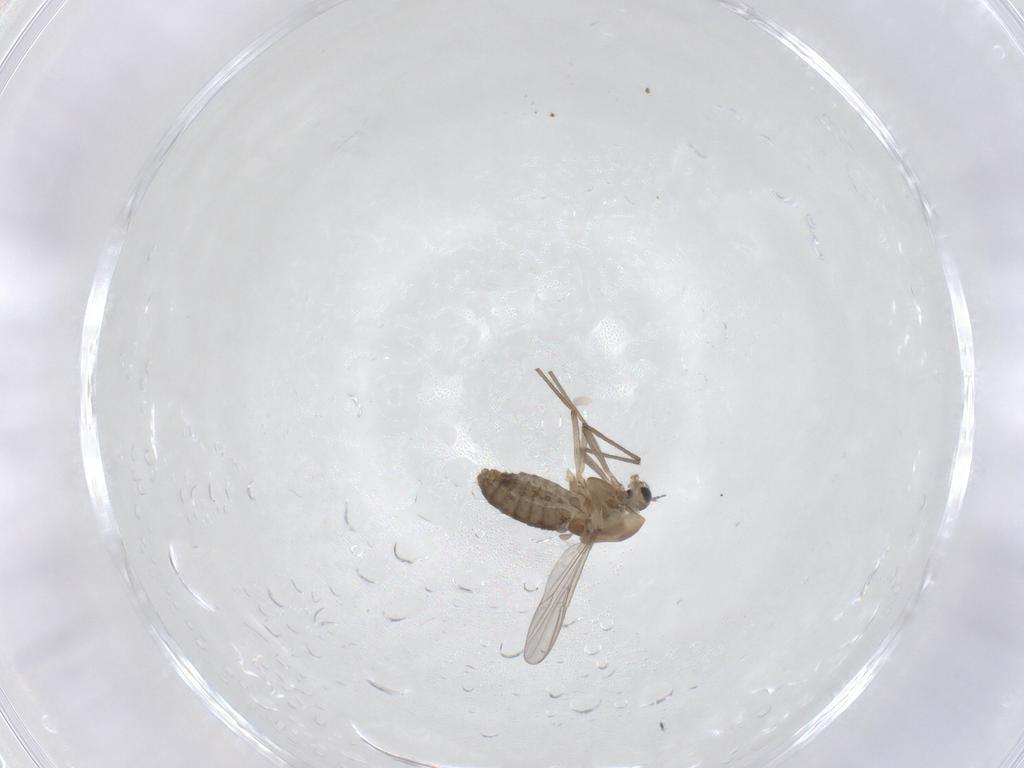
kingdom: Animalia
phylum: Arthropoda
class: Insecta
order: Diptera
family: Chironomidae
